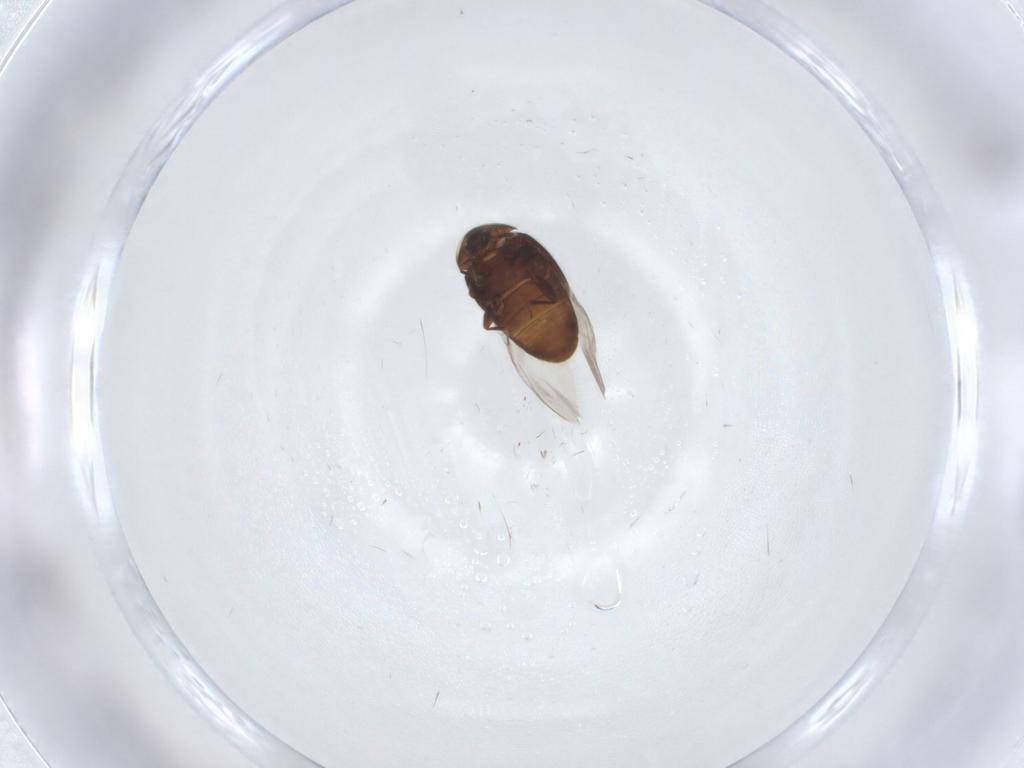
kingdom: Animalia
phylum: Arthropoda
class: Insecta
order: Coleoptera
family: Corylophidae
